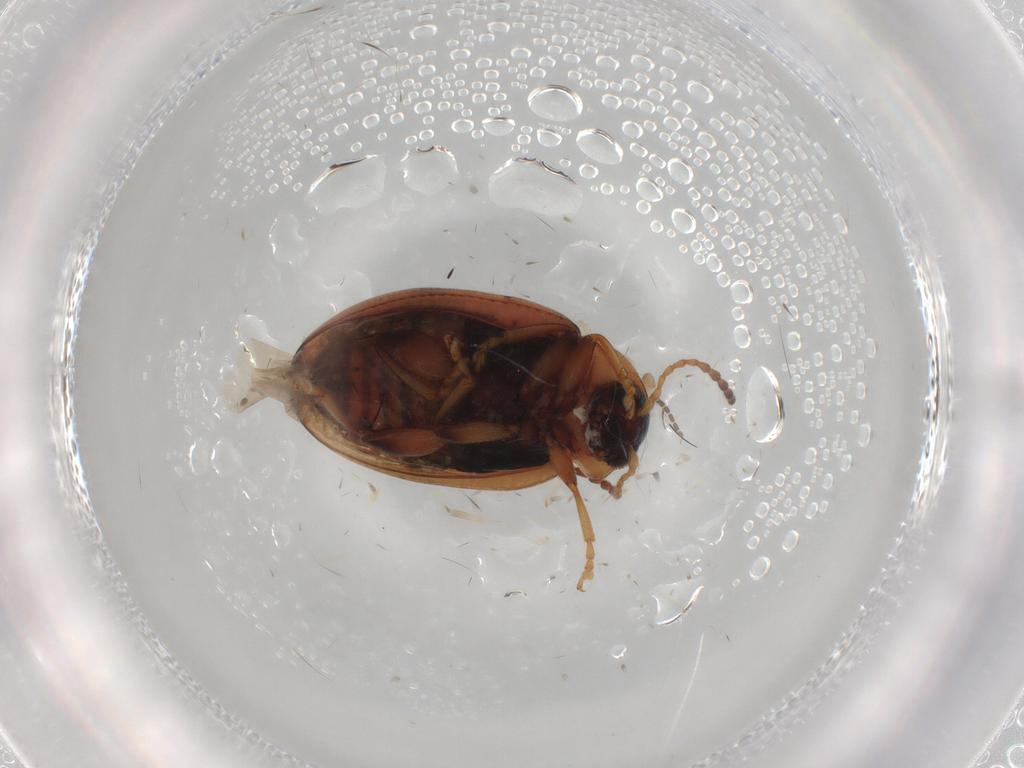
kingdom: Animalia
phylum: Arthropoda
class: Insecta
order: Coleoptera
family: Chrysomelidae
